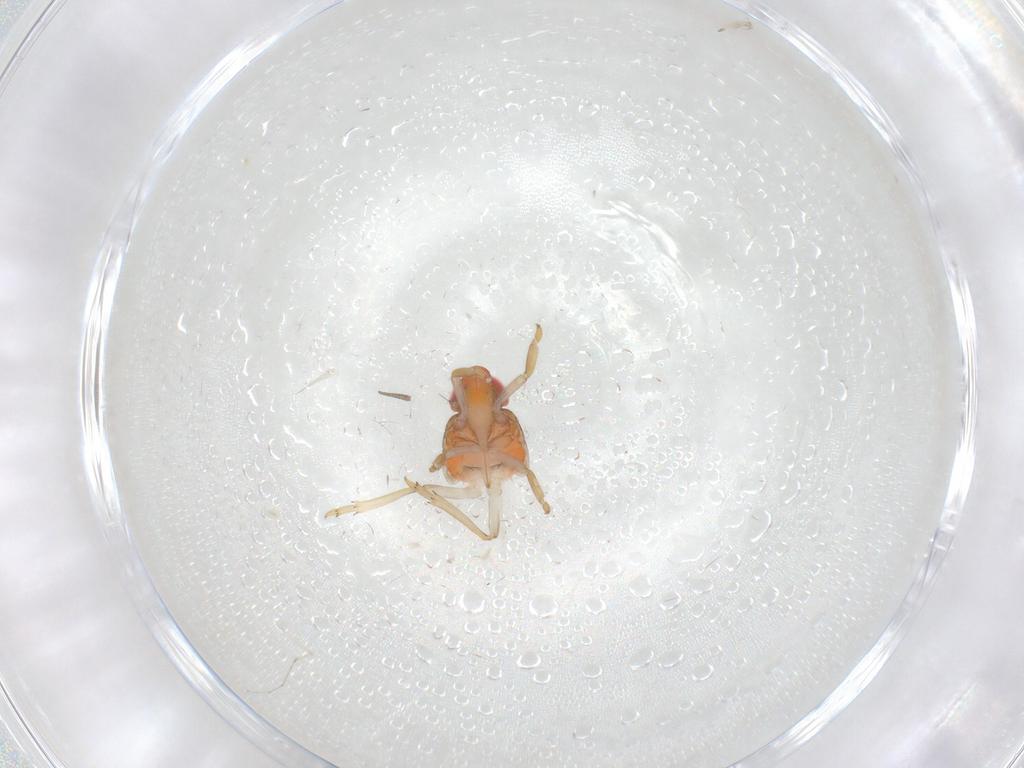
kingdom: Animalia
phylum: Arthropoda
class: Insecta
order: Hemiptera
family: Fulgoroidea_incertae_sedis
